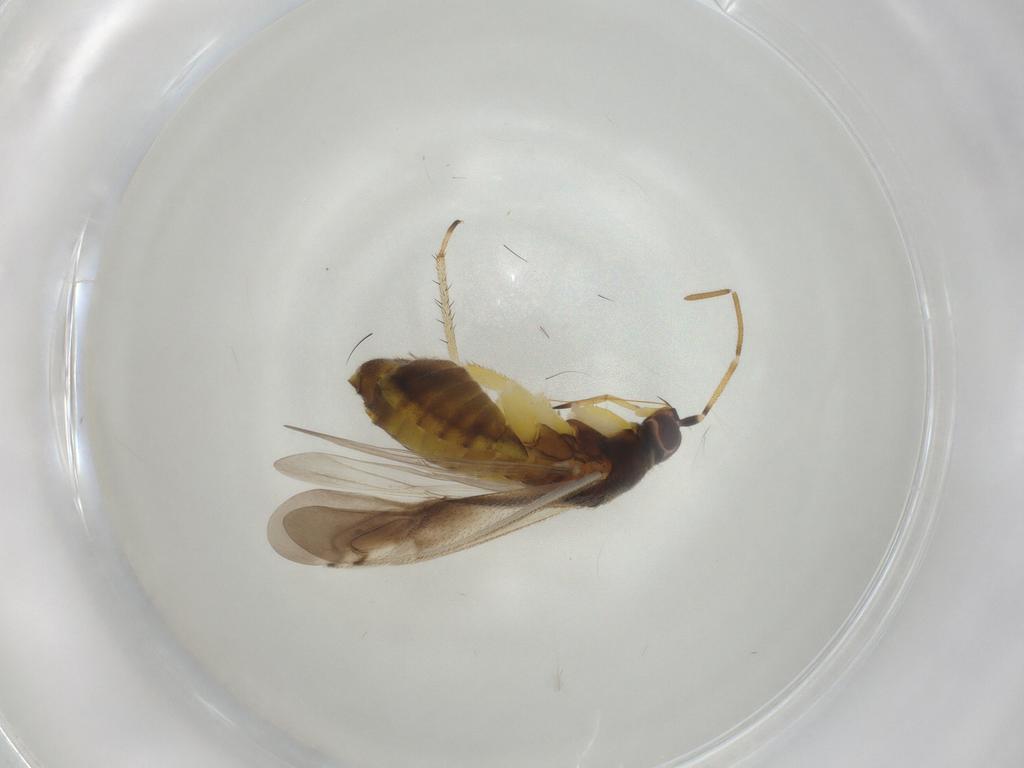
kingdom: Animalia
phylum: Arthropoda
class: Insecta
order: Hemiptera
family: Miridae
